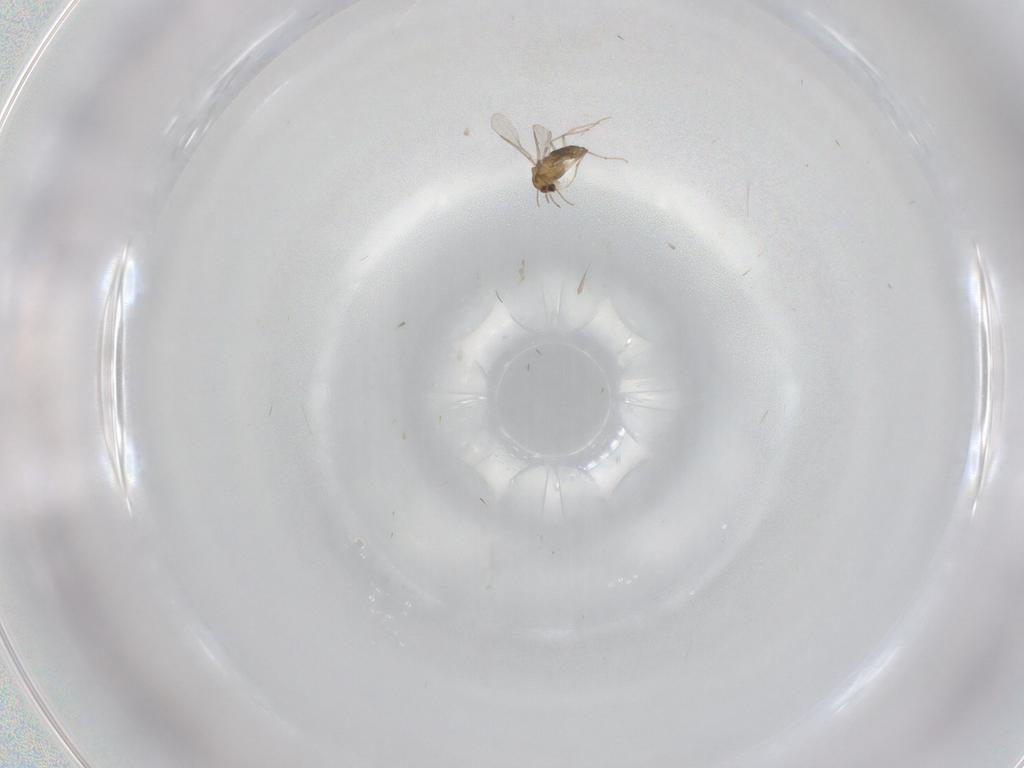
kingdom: Animalia
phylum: Arthropoda
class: Insecta
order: Diptera
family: Chironomidae
